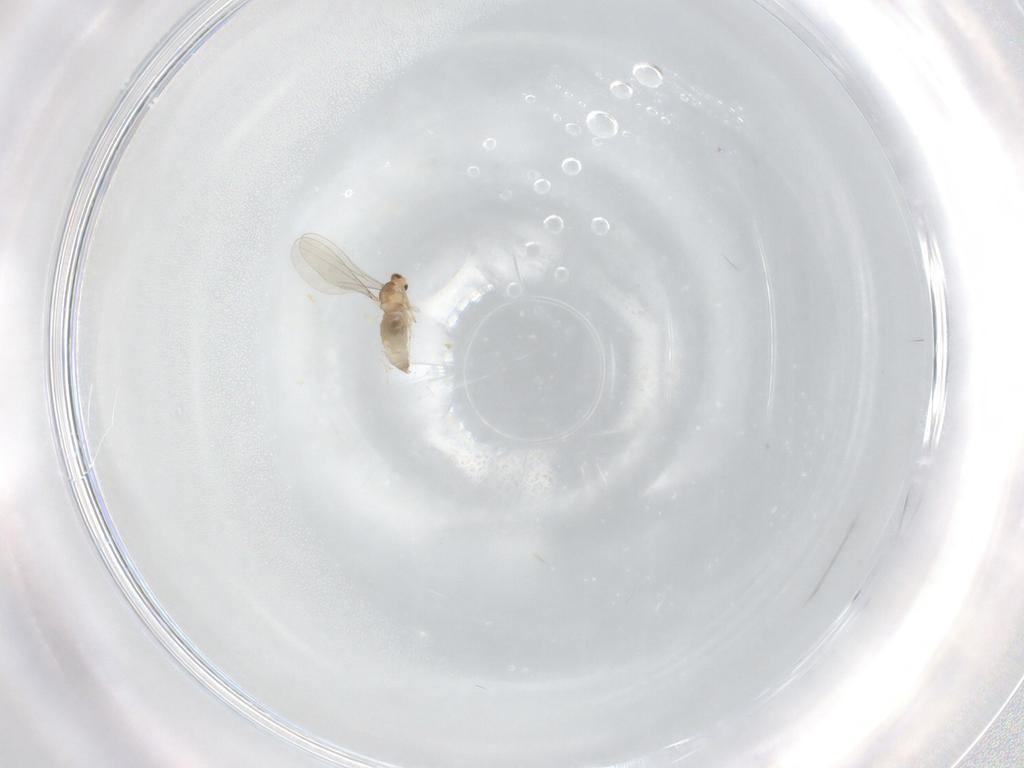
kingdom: Animalia
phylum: Arthropoda
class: Insecta
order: Diptera
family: Cecidomyiidae
